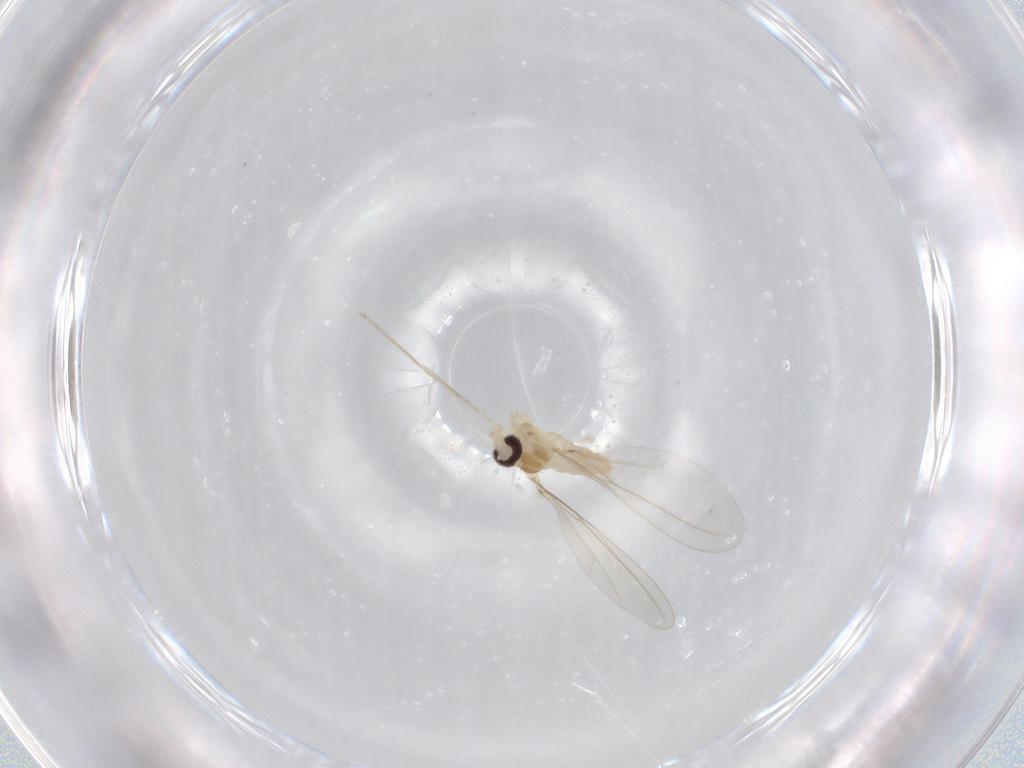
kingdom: Animalia
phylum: Arthropoda
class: Insecta
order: Diptera
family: Cecidomyiidae
